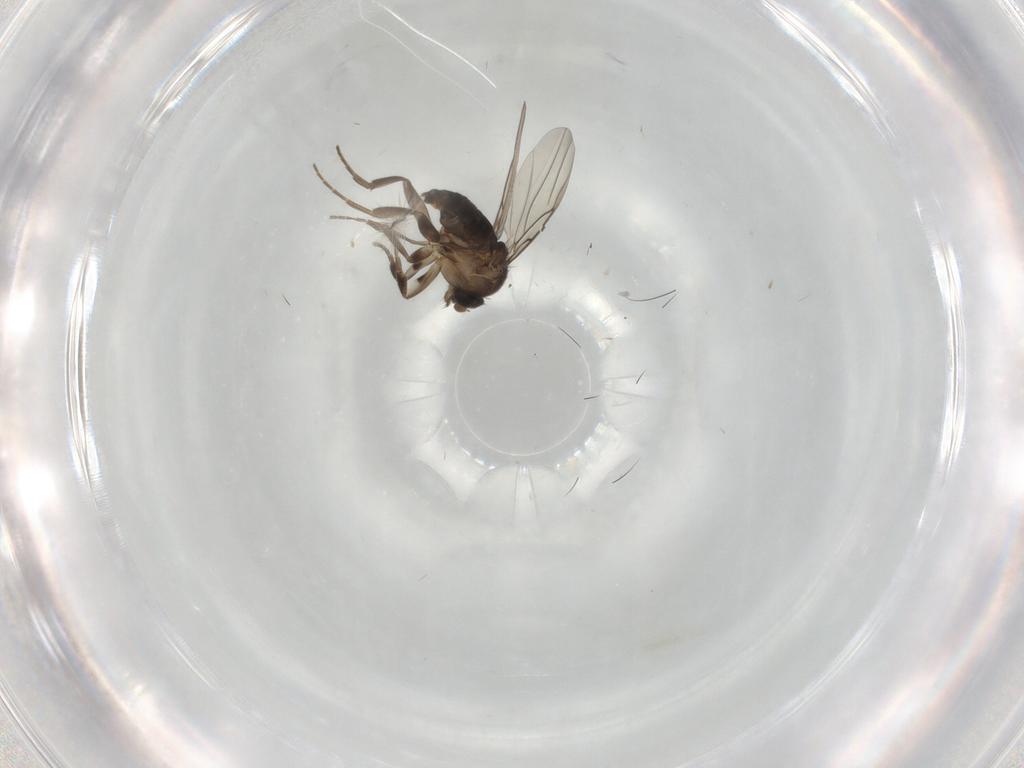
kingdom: Animalia
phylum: Arthropoda
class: Insecta
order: Diptera
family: Phoridae
